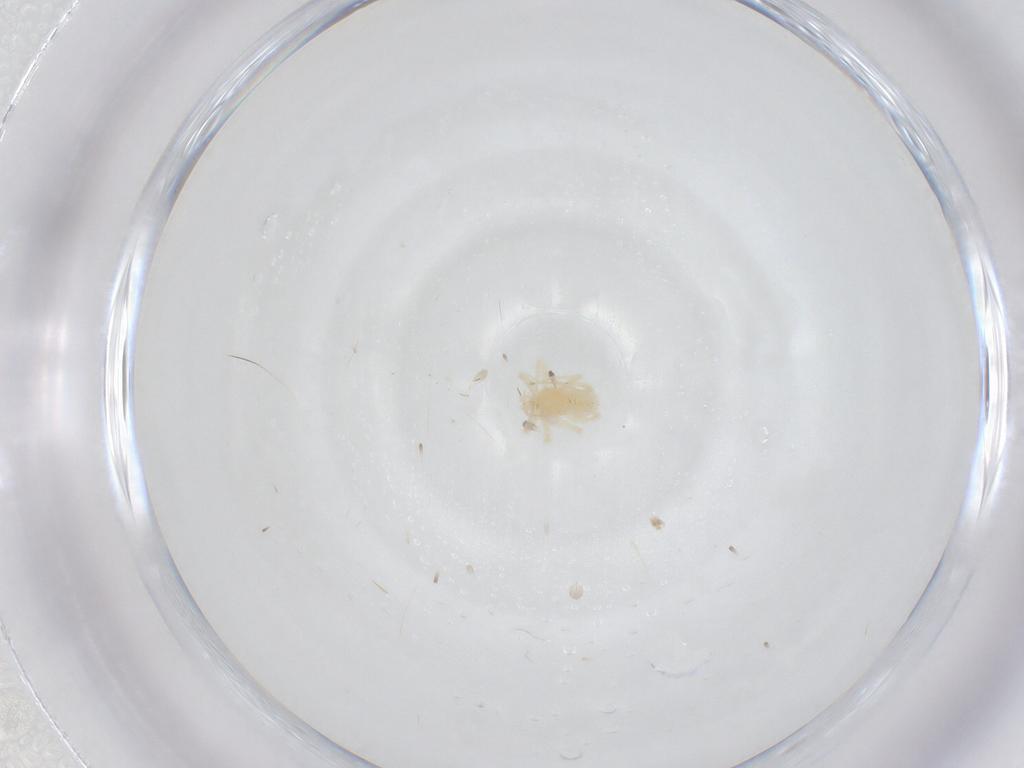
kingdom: Animalia
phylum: Arthropoda
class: Arachnida
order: Trombidiformes
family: Anystidae
